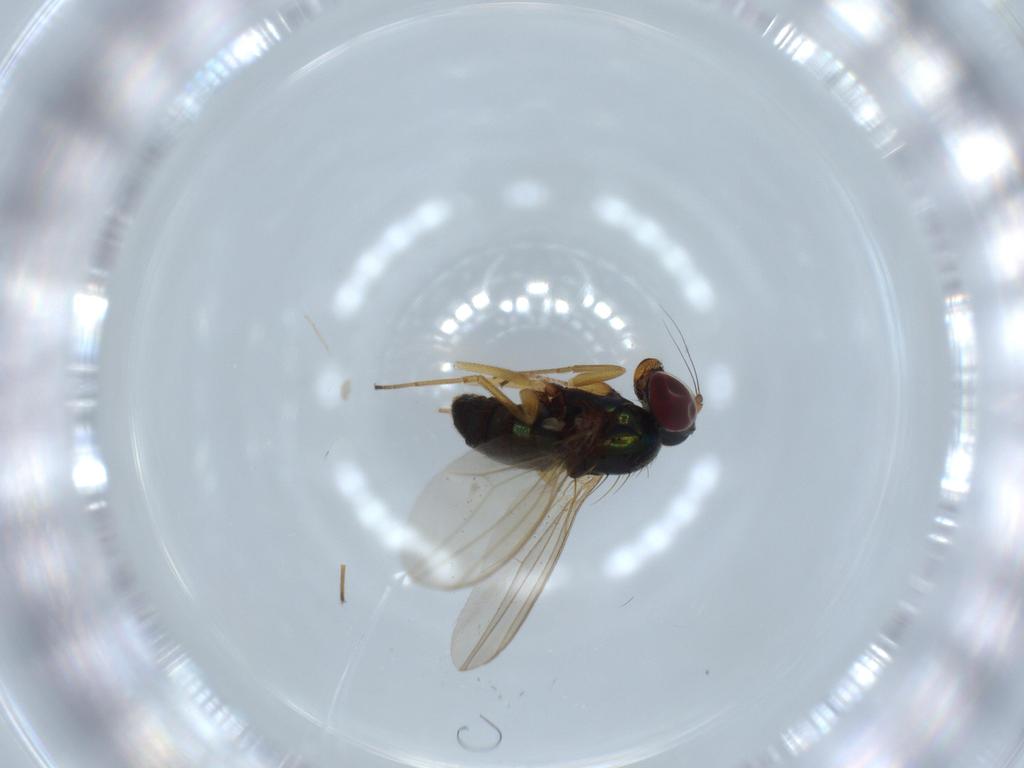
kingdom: Animalia
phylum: Arthropoda
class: Insecta
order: Diptera
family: Dolichopodidae
